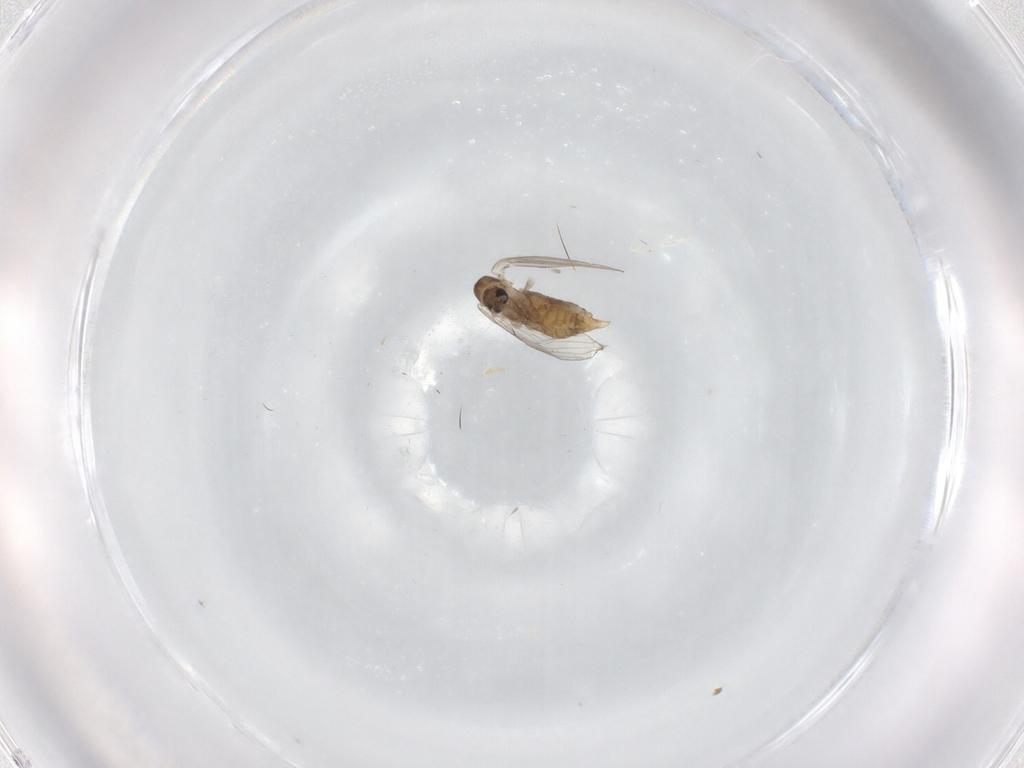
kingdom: Animalia
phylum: Arthropoda
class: Insecta
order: Diptera
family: Psychodidae
